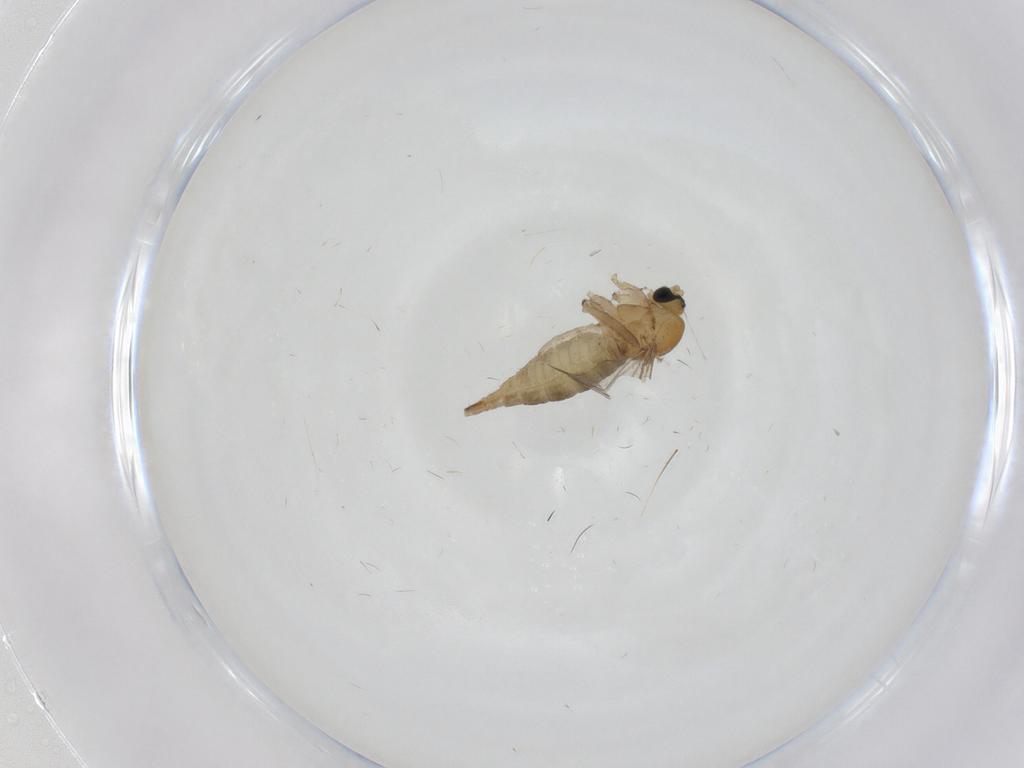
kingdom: Animalia
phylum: Arthropoda
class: Insecta
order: Diptera
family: Sciaridae
